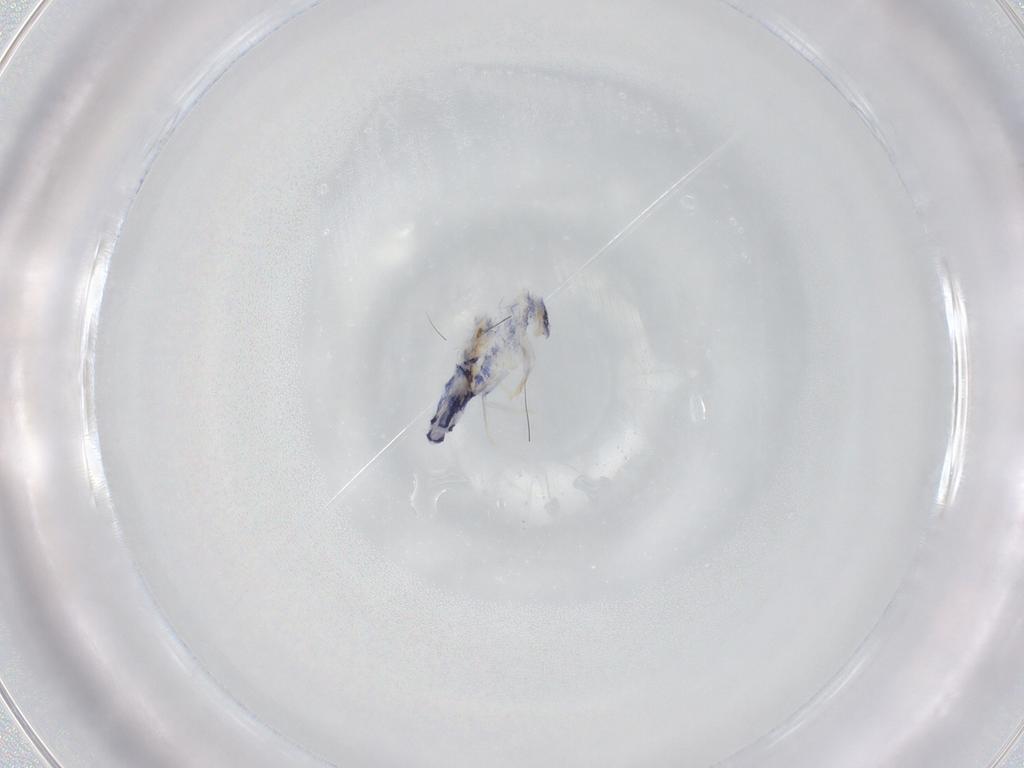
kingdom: Animalia
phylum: Arthropoda
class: Collembola
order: Entomobryomorpha
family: Entomobryidae
